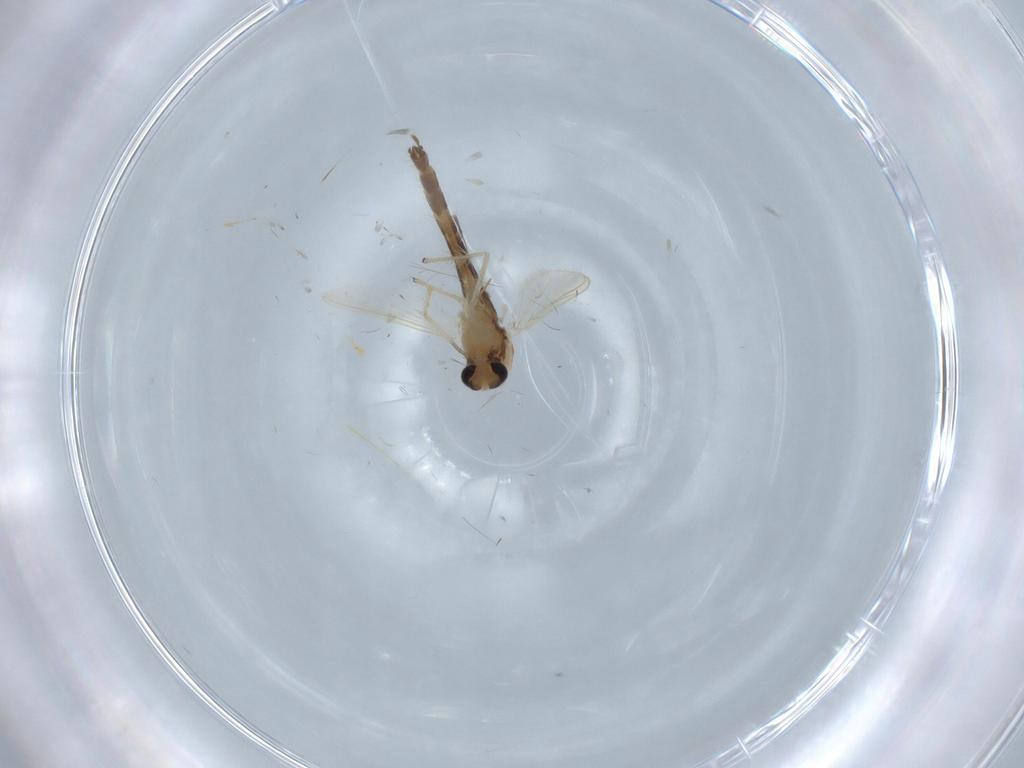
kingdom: Animalia
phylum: Arthropoda
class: Insecta
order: Diptera
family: Chironomidae
